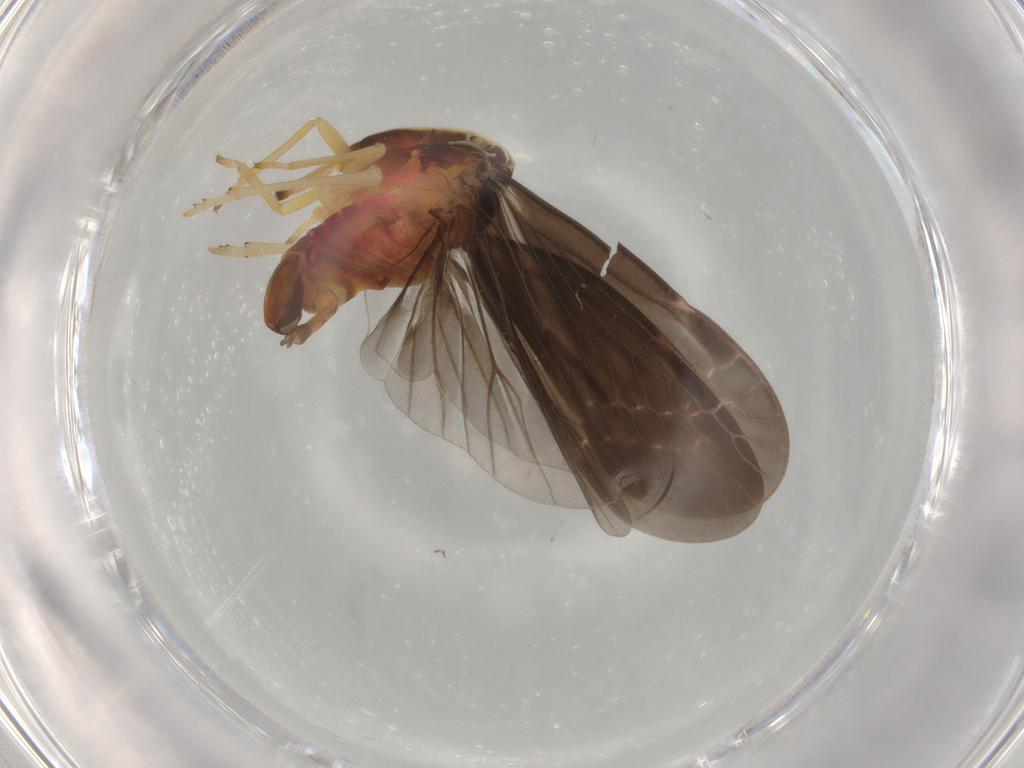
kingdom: Animalia
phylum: Arthropoda
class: Insecta
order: Hemiptera
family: Derbidae
